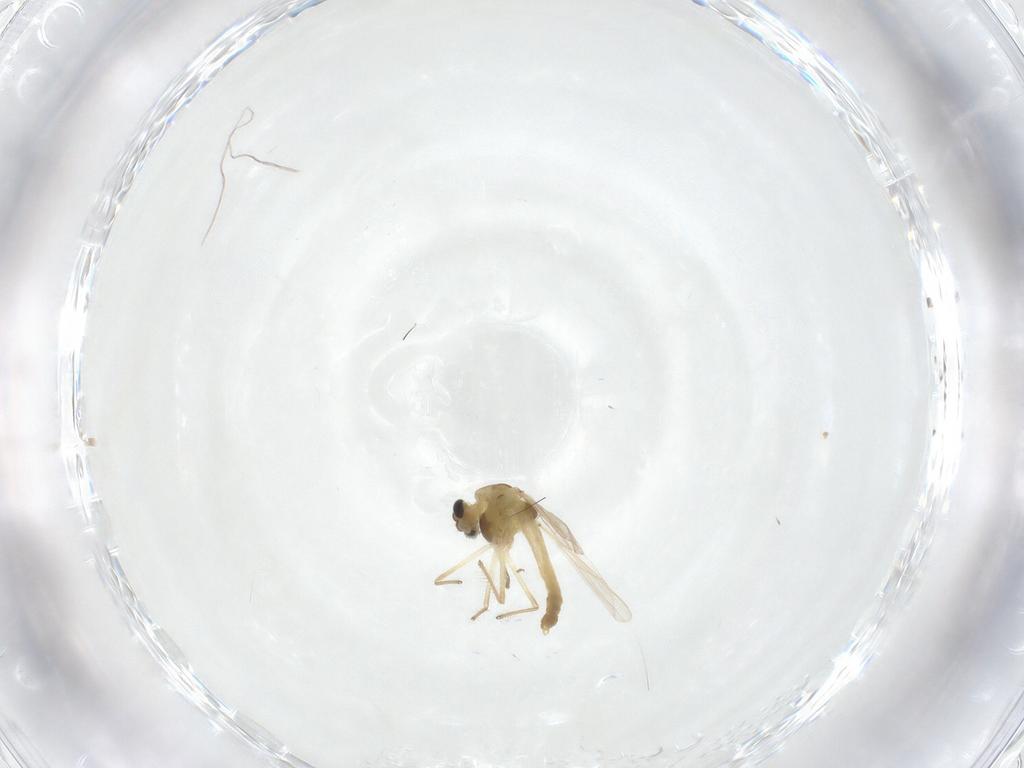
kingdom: Animalia
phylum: Arthropoda
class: Insecta
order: Diptera
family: Chironomidae
